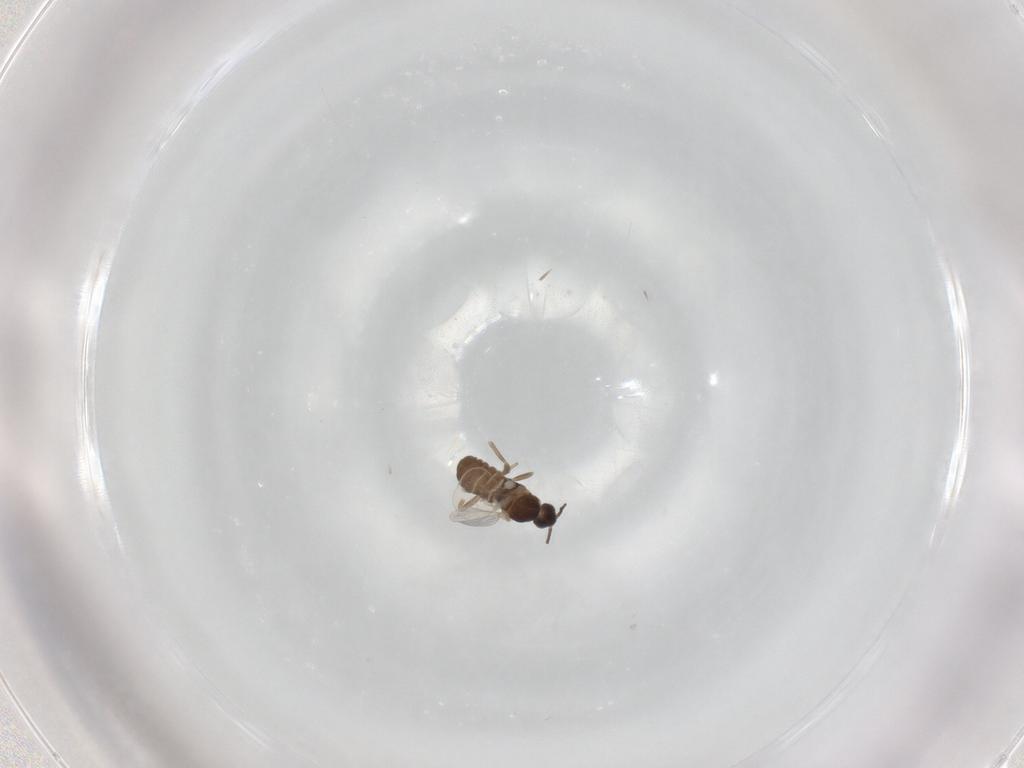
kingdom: Animalia
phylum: Arthropoda
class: Insecta
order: Diptera
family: Cecidomyiidae
